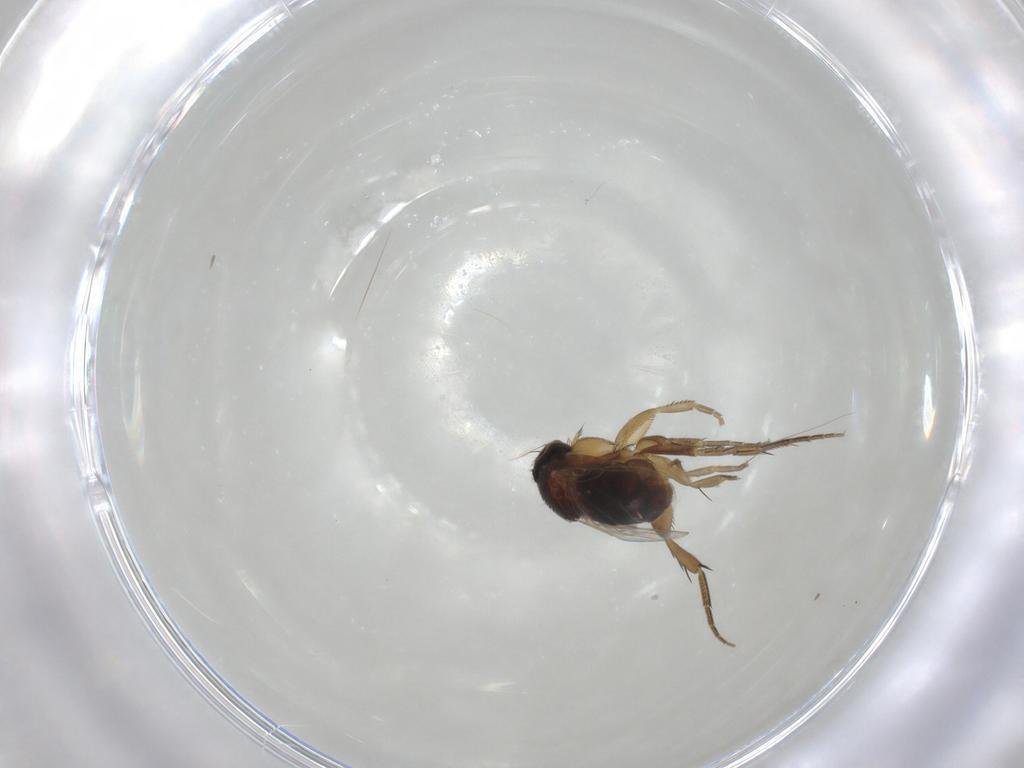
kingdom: Animalia
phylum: Arthropoda
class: Insecta
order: Diptera
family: Phoridae
